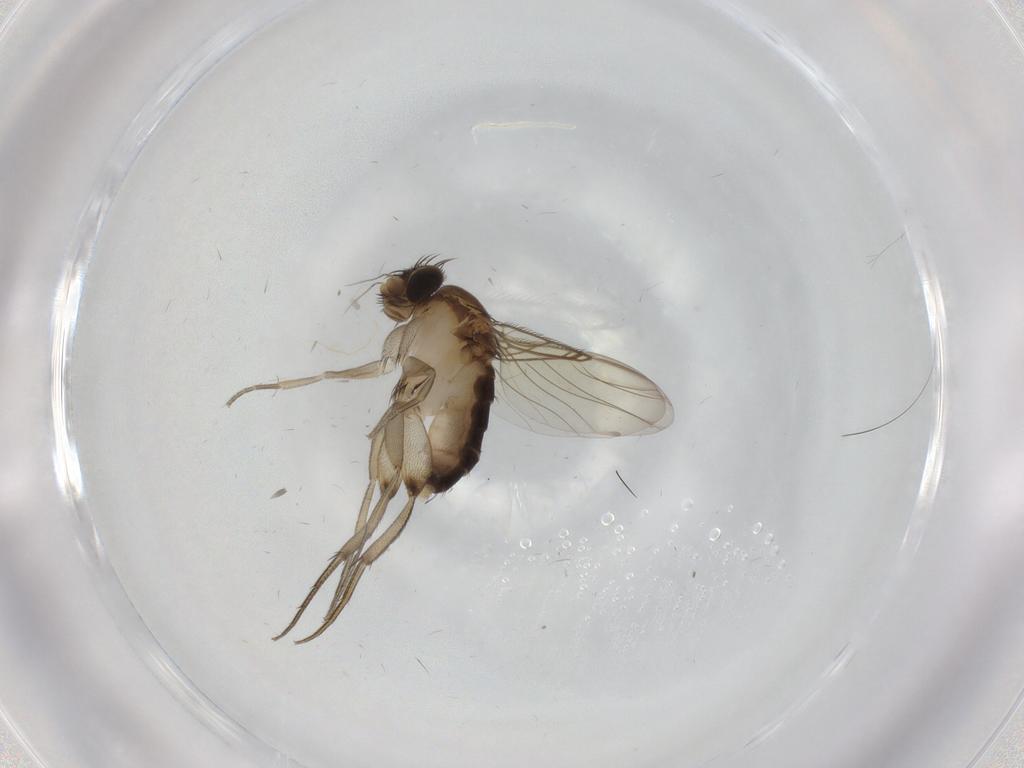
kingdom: Animalia
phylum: Arthropoda
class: Insecta
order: Diptera
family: Phoridae
